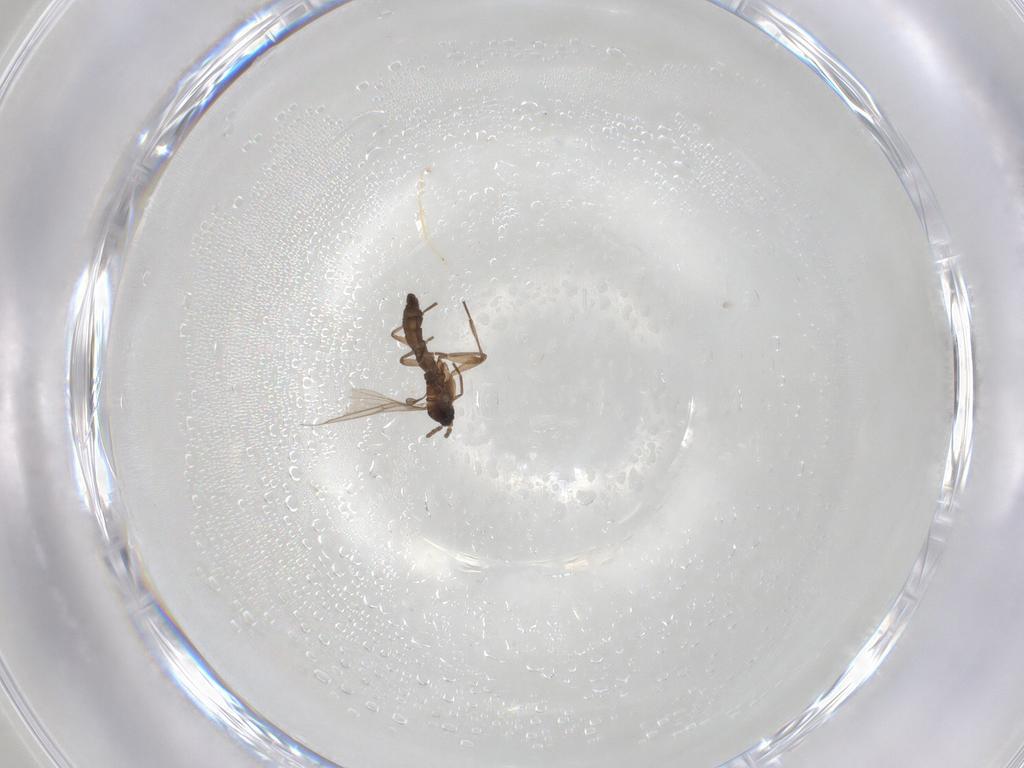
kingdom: Animalia
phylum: Arthropoda
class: Insecta
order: Diptera
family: Sciaridae
